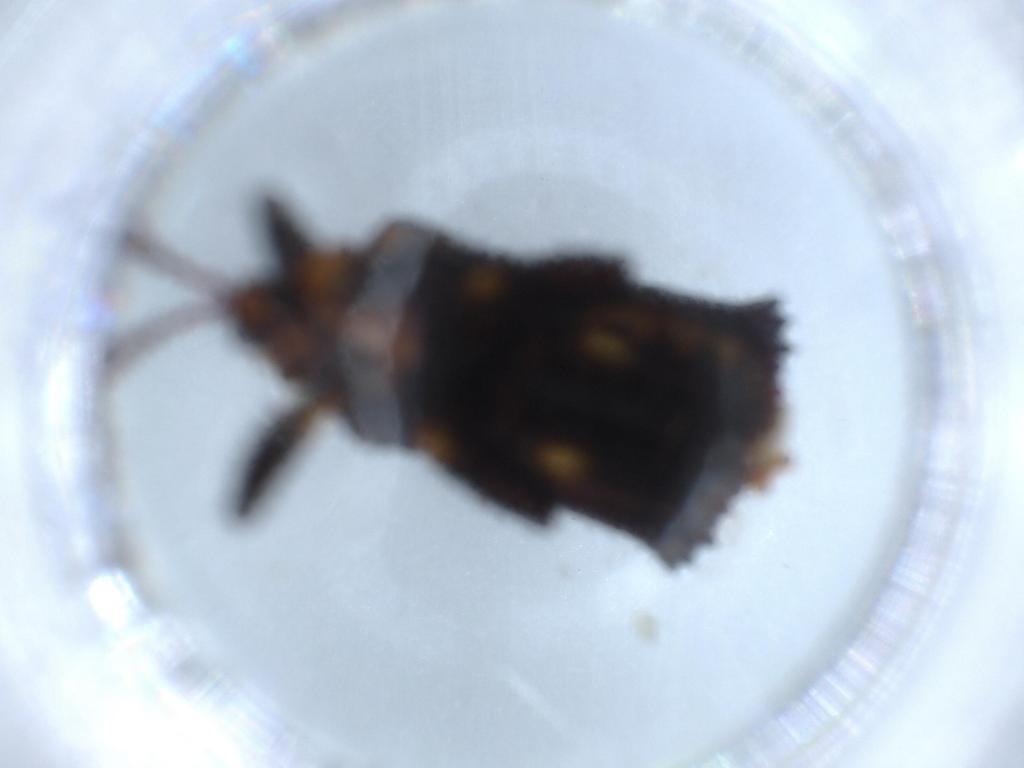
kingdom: Animalia
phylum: Arthropoda
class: Insecta
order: Coleoptera
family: Chrysomelidae
